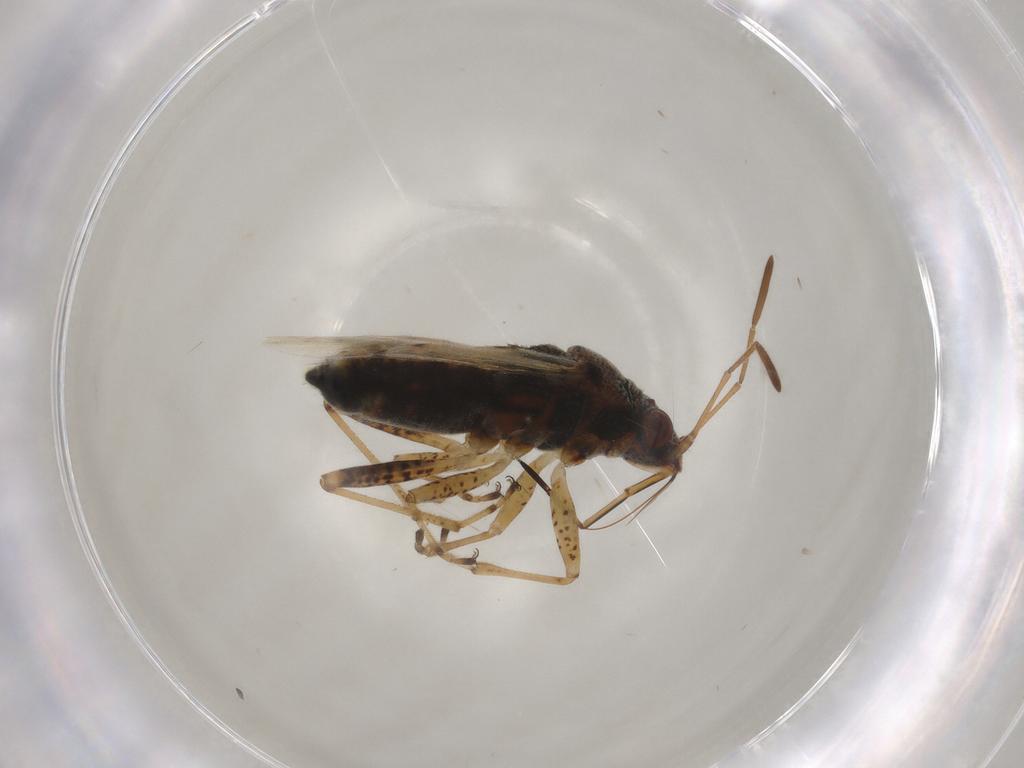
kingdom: Animalia
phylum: Arthropoda
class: Insecta
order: Hemiptera
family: Lygaeidae
